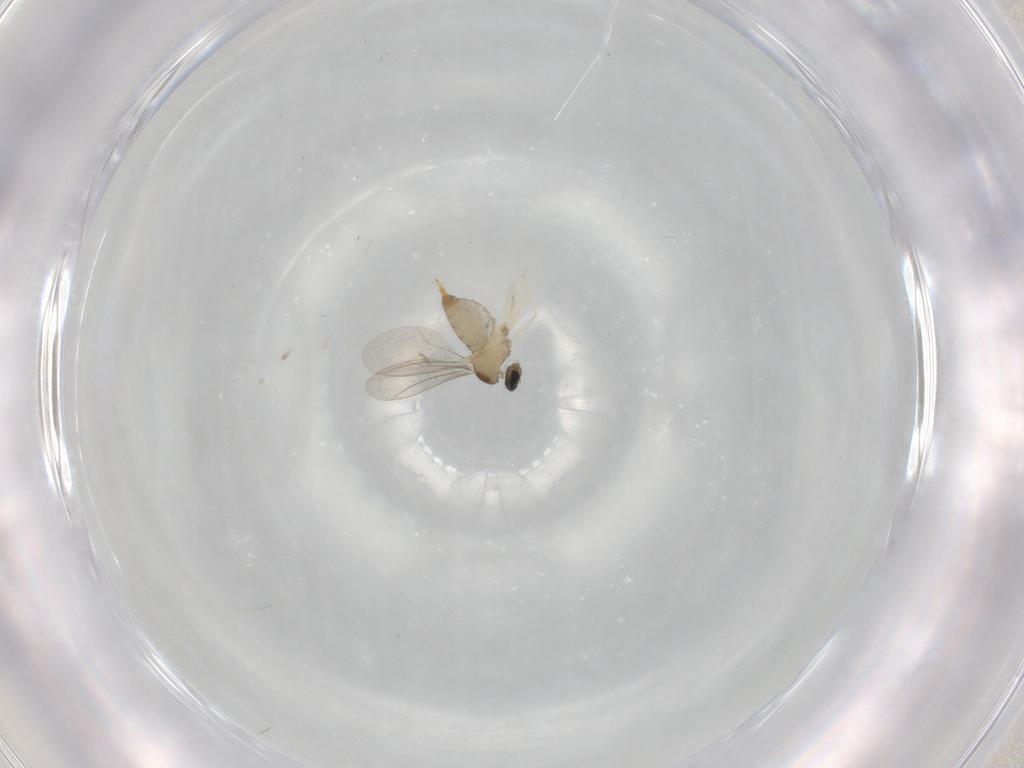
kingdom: Animalia
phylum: Arthropoda
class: Insecta
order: Diptera
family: Cecidomyiidae
